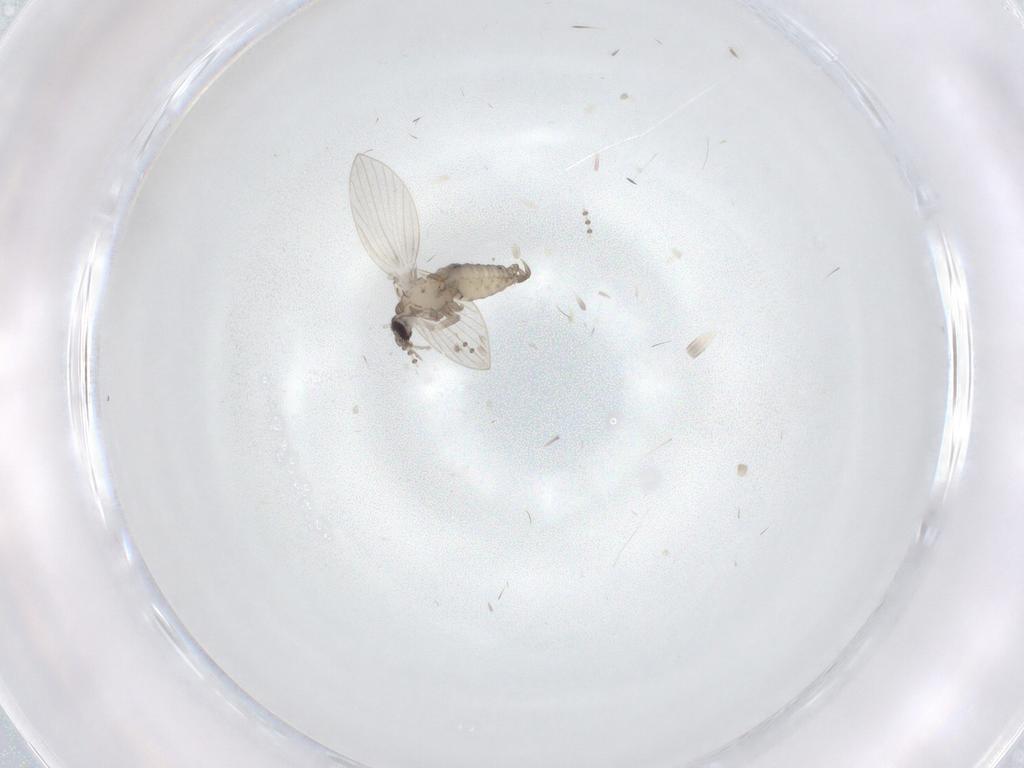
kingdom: Animalia
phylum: Arthropoda
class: Insecta
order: Diptera
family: Psychodidae
